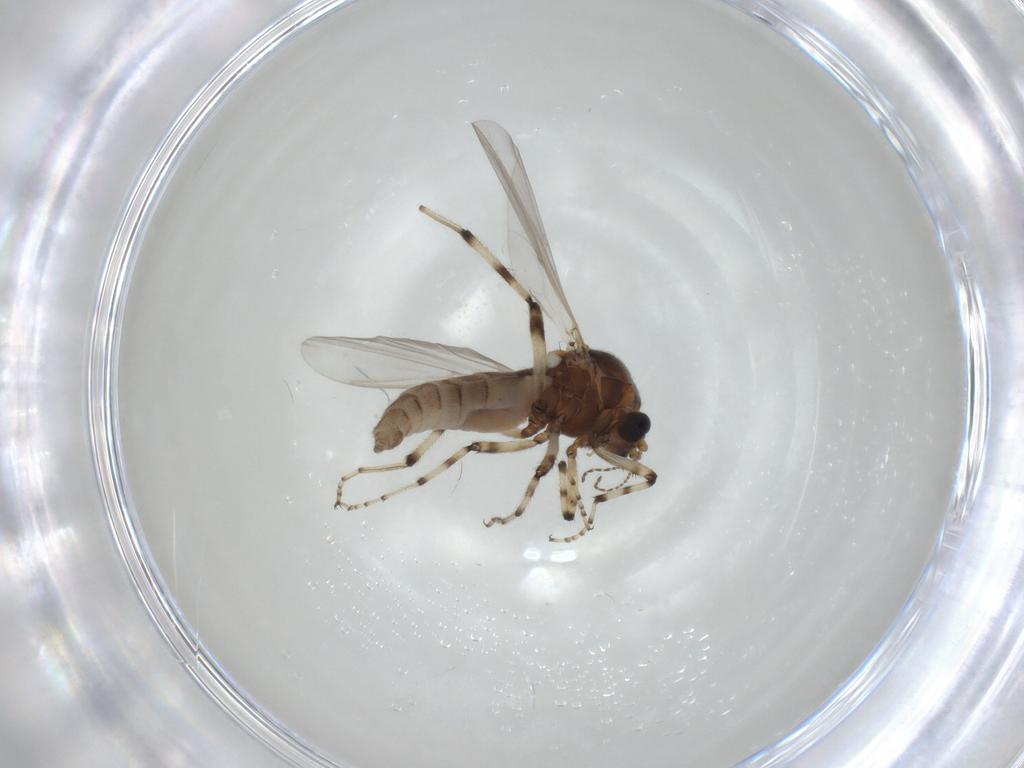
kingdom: Animalia
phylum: Arthropoda
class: Insecta
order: Diptera
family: Ceratopogonidae
